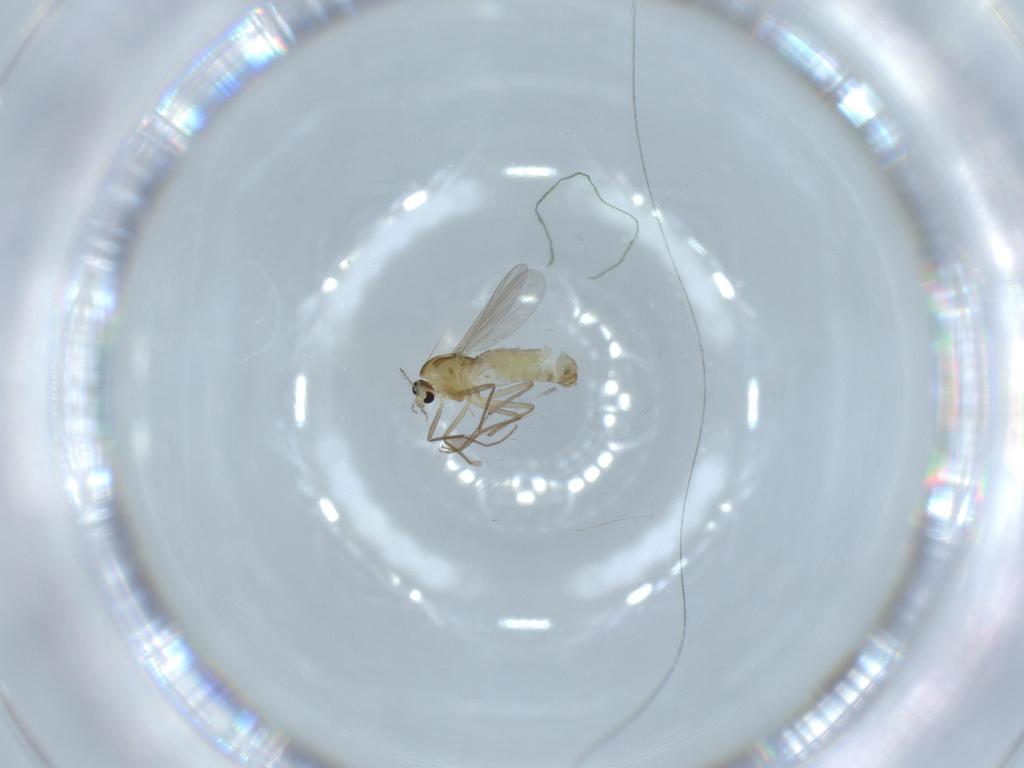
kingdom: Animalia
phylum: Arthropoda
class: Insecta
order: Diptera
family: Chironomidae
